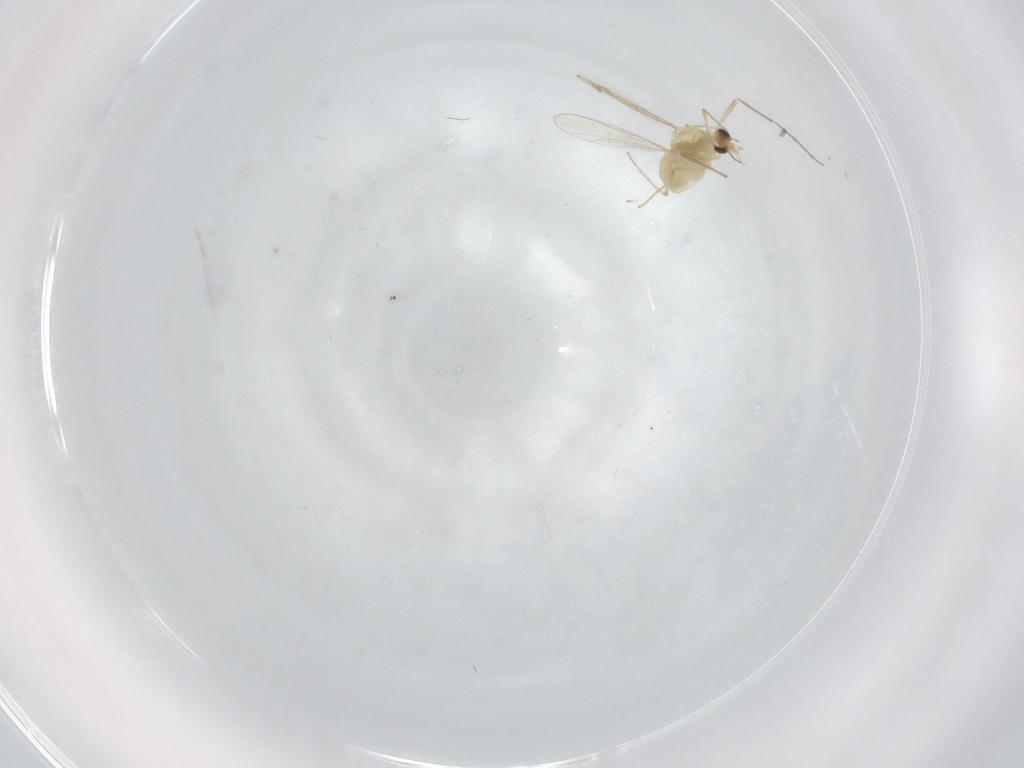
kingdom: Animalia
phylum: Arthropoda
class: Insecta
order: Diptera
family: Chironomidae
